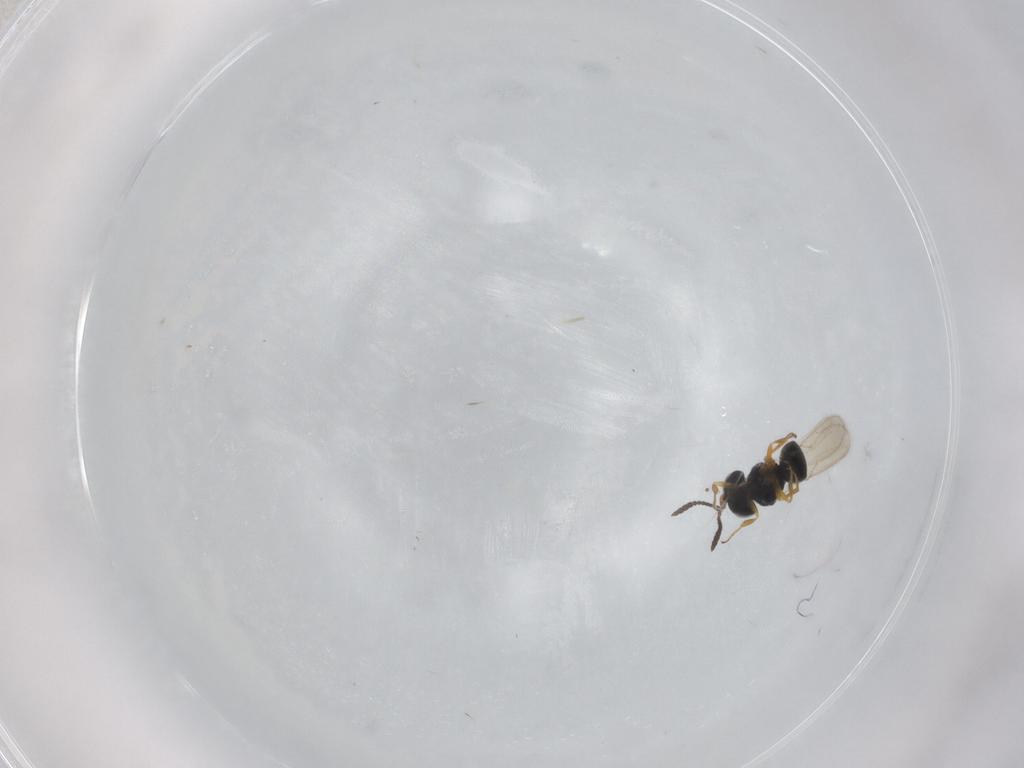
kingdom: Animalia
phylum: Arthropoda
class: Insecta
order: Hymenoptera
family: Scelionidae
